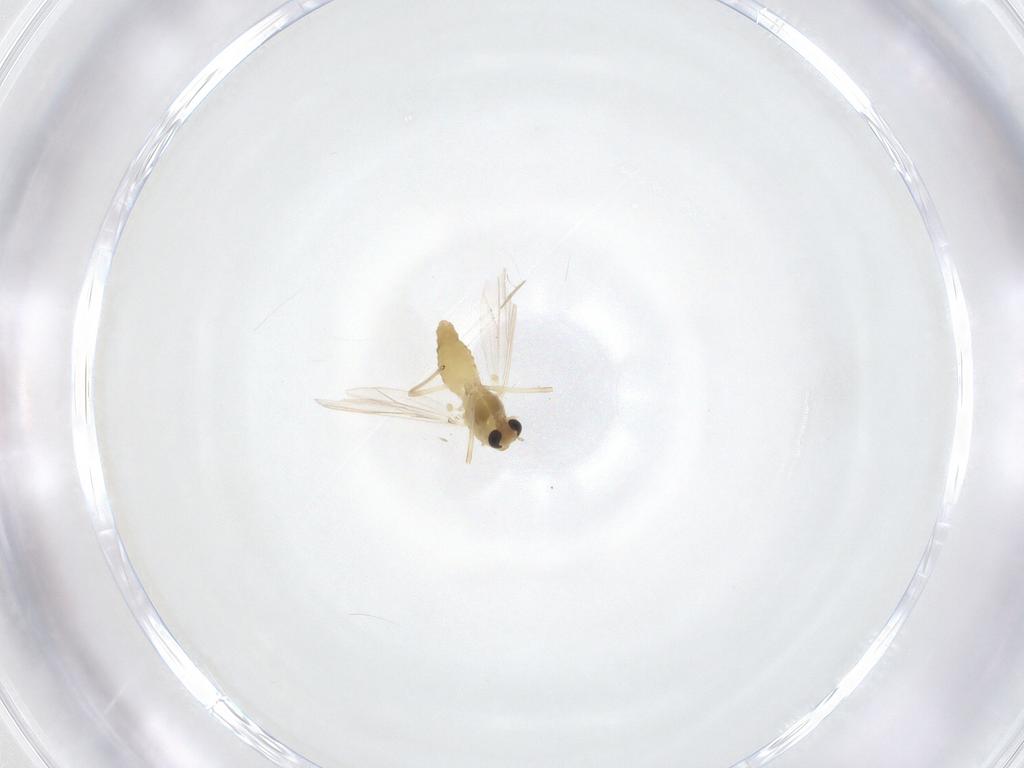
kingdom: Animalia
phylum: Arthropoda
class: Insecta
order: Diptera
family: Chironomidae
